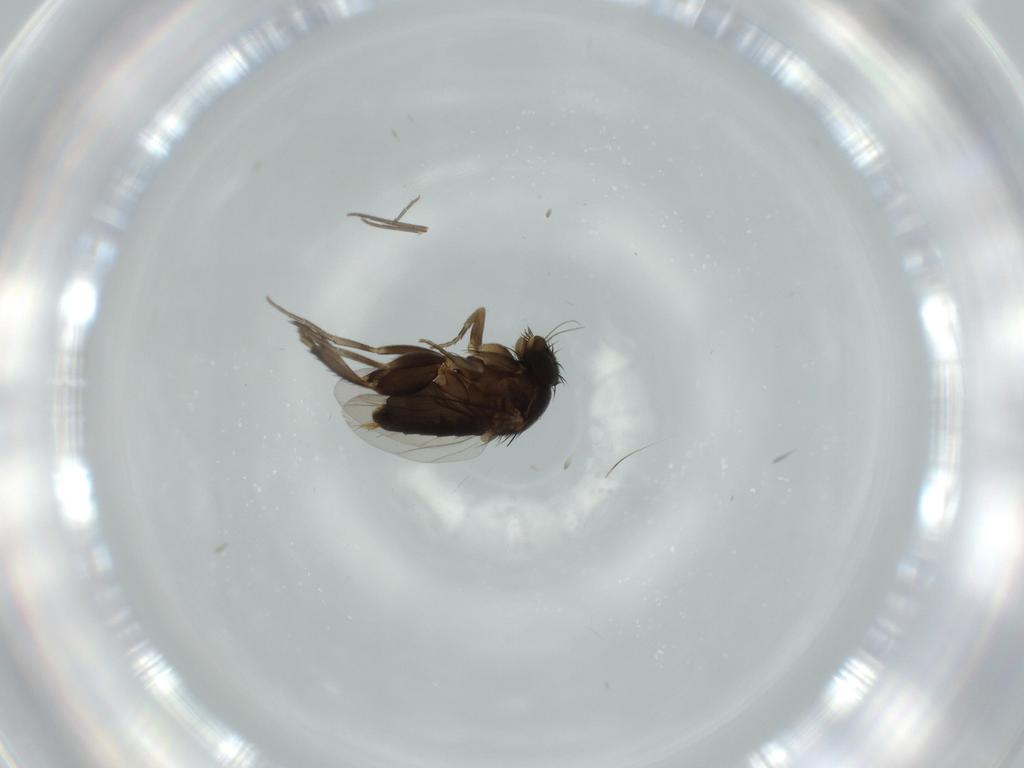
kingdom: Animalia
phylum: Arthropoda
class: Insecta
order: Diptera
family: Phoridae
